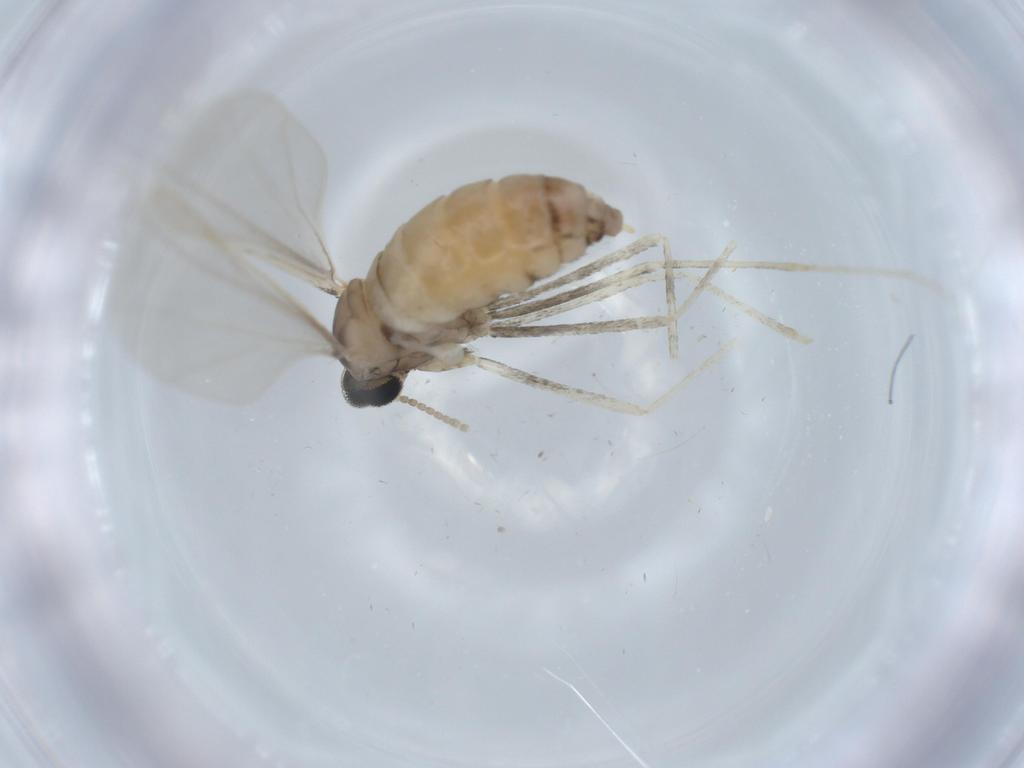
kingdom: Animalia
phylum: Arthropoda
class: Insecta
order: Diptera
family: Cecidomyiidae
